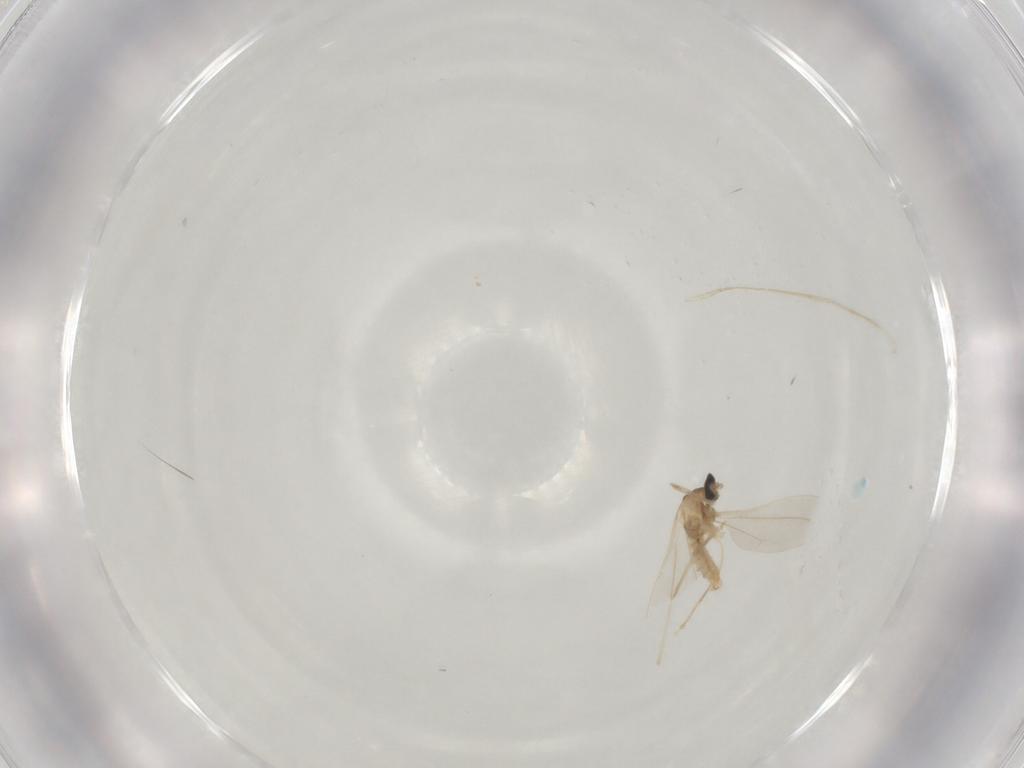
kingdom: Animalia
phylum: Arthropoda
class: Insecta
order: Diptera
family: Cecidomyiidae
